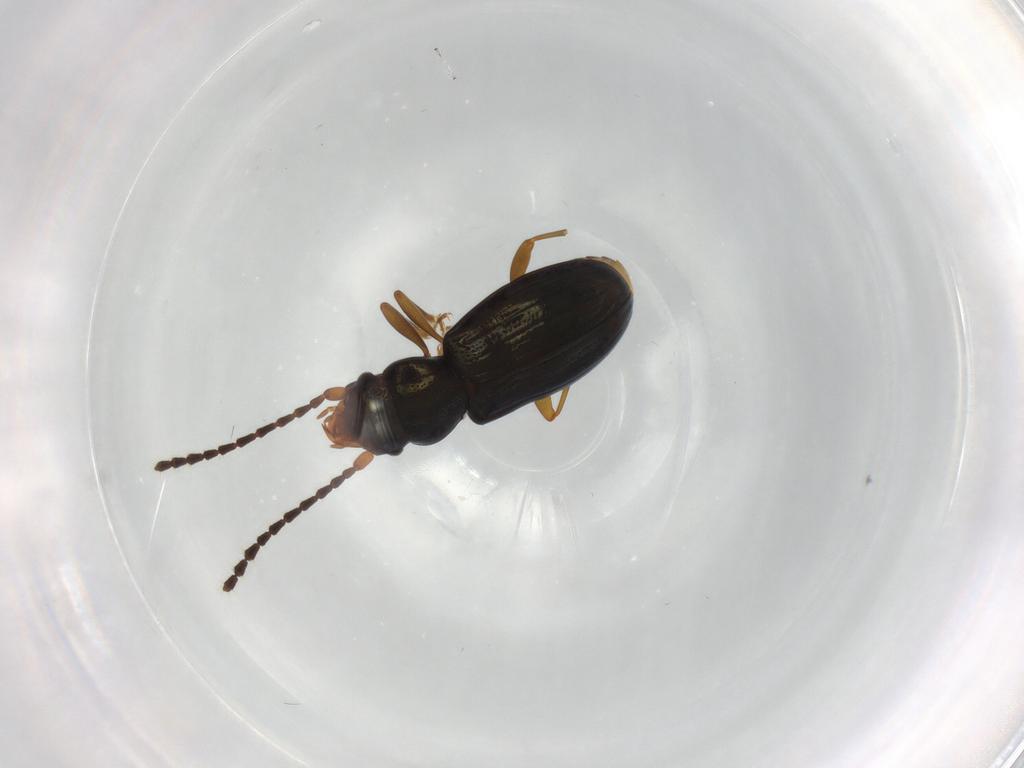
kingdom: Animalia
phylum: Arthropoda
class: Insecta
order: Coleoptera
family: Laemophloeidae
